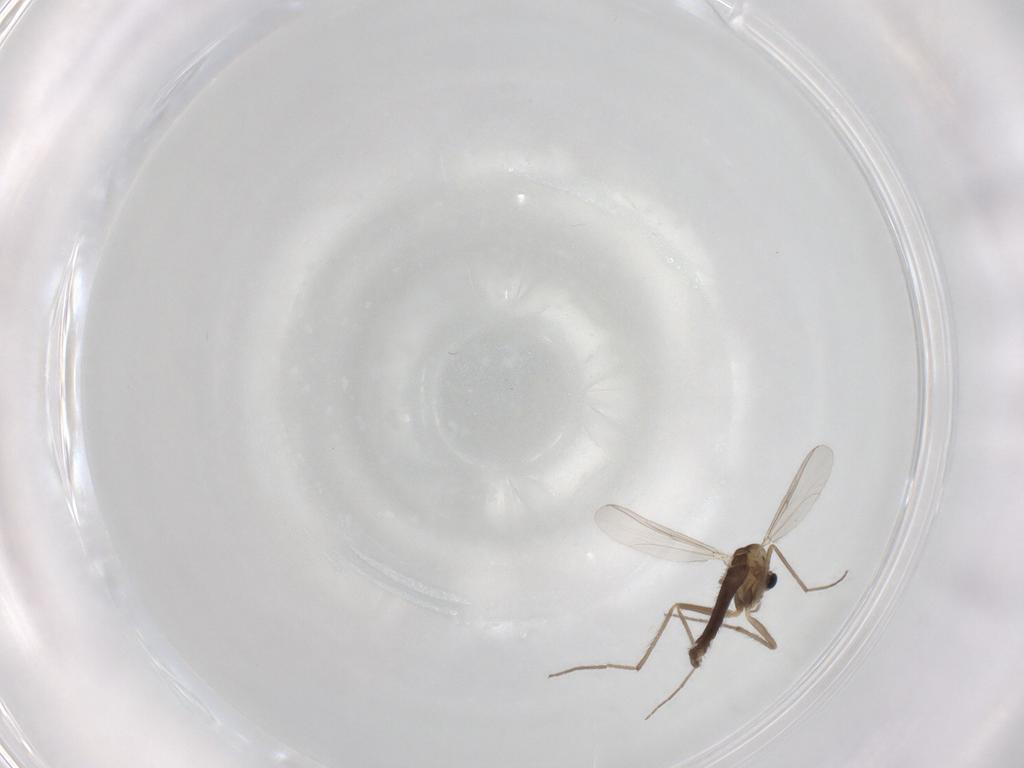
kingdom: Animalia
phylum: Arthropoda
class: Insecta
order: Diptera
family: Chironomidae
